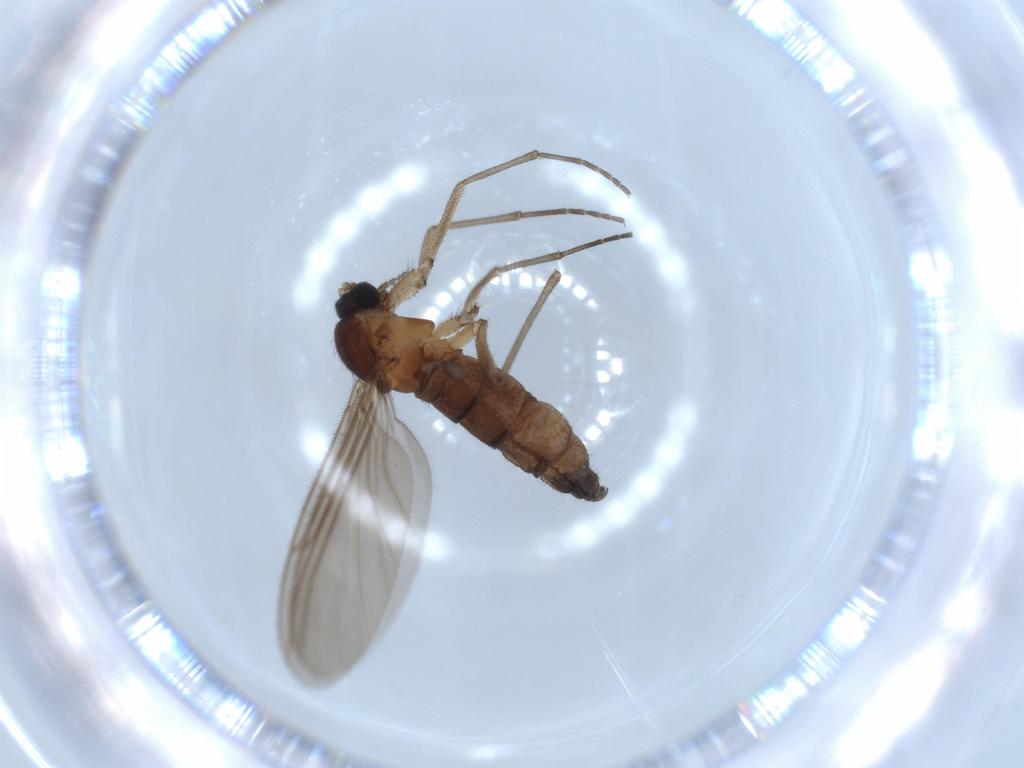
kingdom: Animalia
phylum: Arthropoda
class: Insecta
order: Diptera
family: Sciaridae
